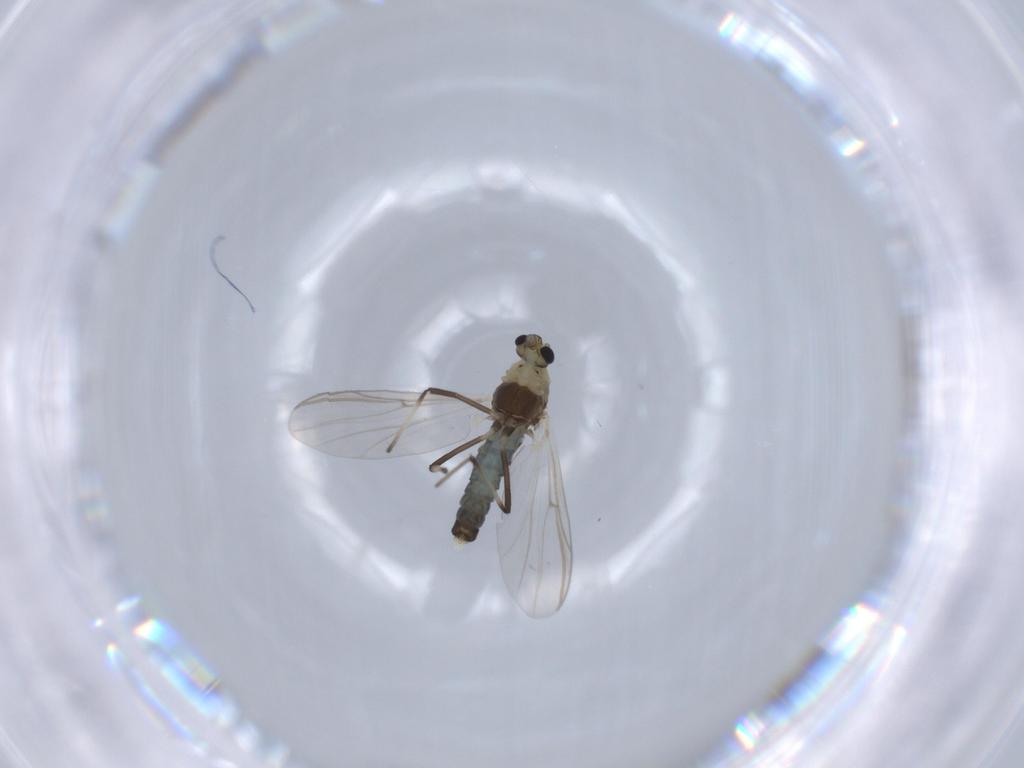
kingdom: Animalia
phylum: Arthropoda
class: Insecta
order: Diptera
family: Chironomidae
